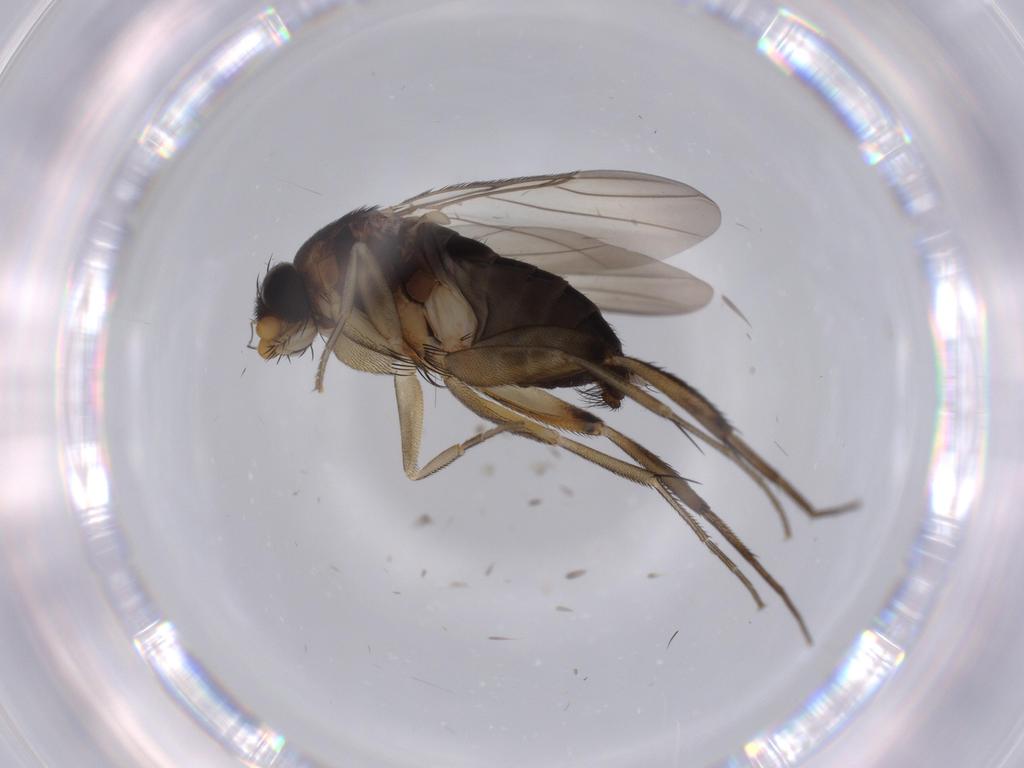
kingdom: Animalia
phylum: Arthropoda
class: Insecta
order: Diptera
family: Phoridae
